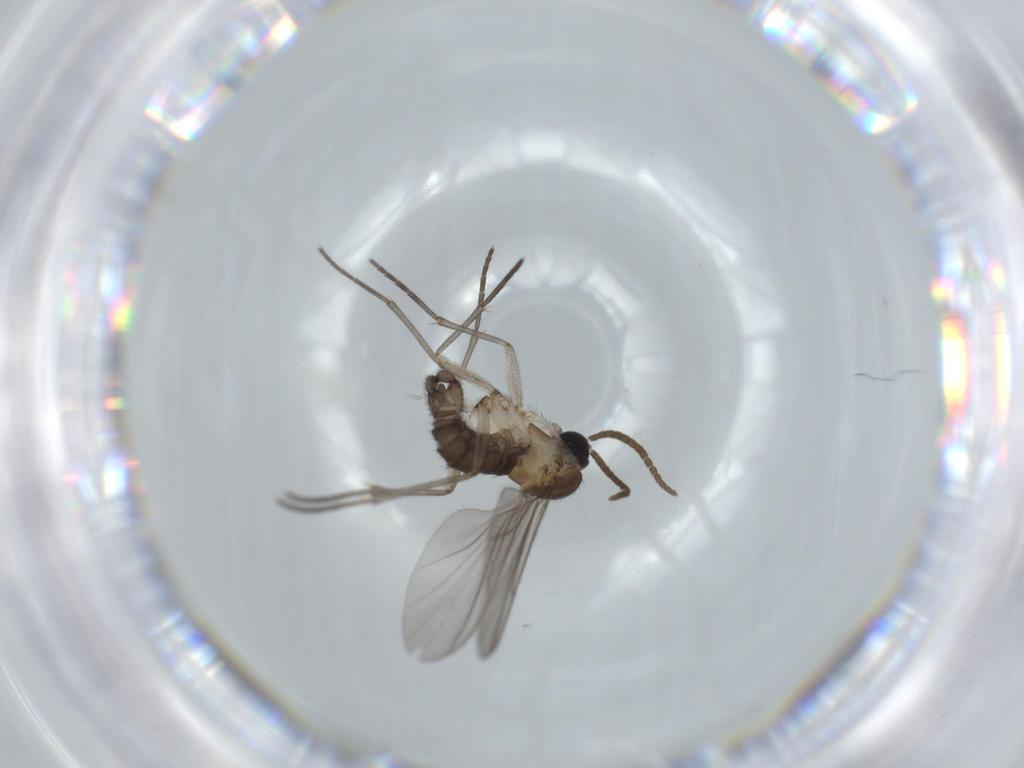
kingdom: Animalia
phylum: Arthropoda
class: Insecta
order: Diptera
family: Sciaridae
